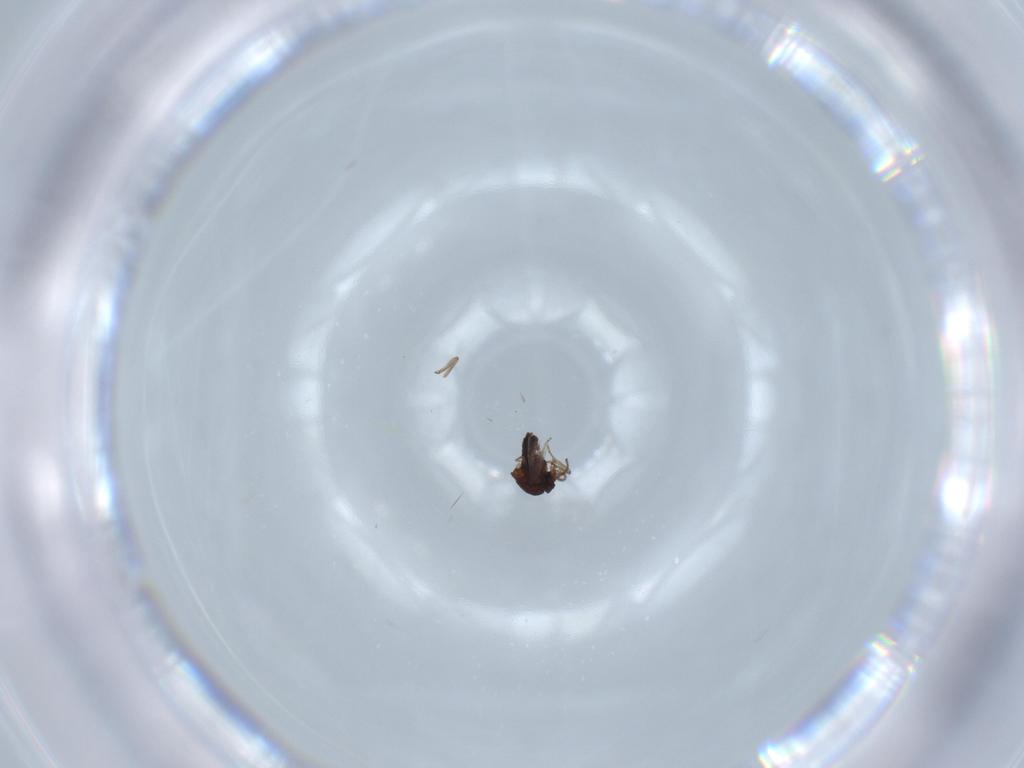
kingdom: Animalia
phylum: Arthropoda
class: Insecta
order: Diptera
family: Ceratopogonidae
